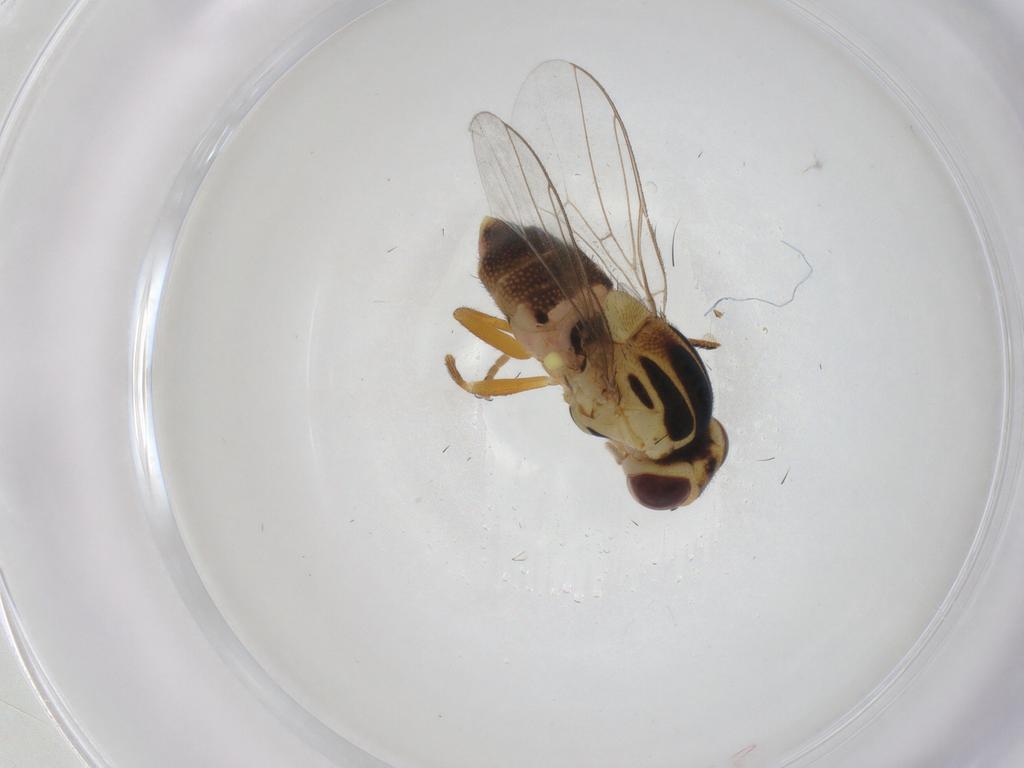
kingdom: Animalia
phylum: Arthropoda
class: Insecta
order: Diptera
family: Chloropidae
